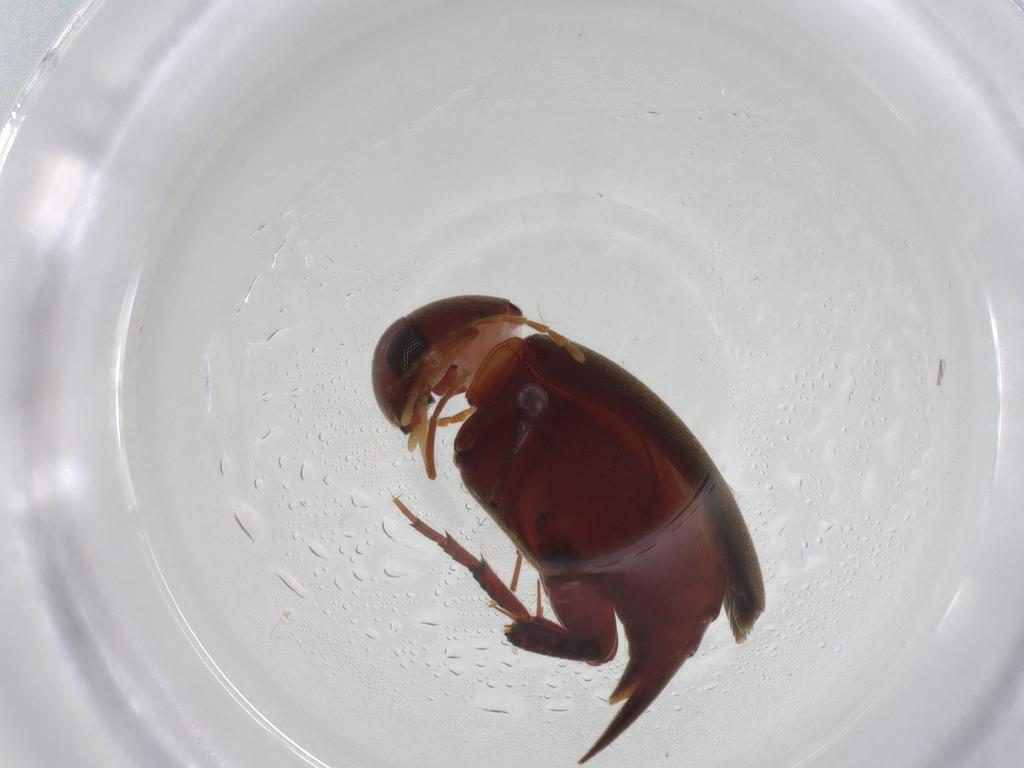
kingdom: Animalia
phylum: Arthropoda
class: Insecta
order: Coleoptera
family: Mordellidae
